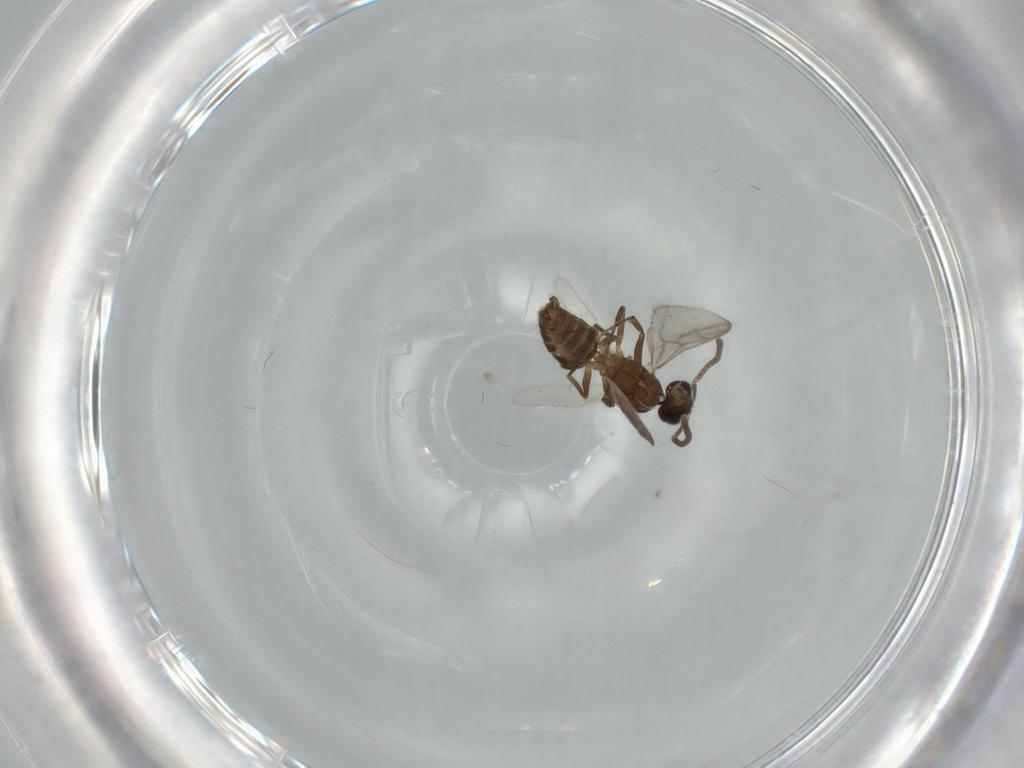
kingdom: Animalia
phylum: Arthropoda
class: Insecta
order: Hymenoptera
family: Formicidae
